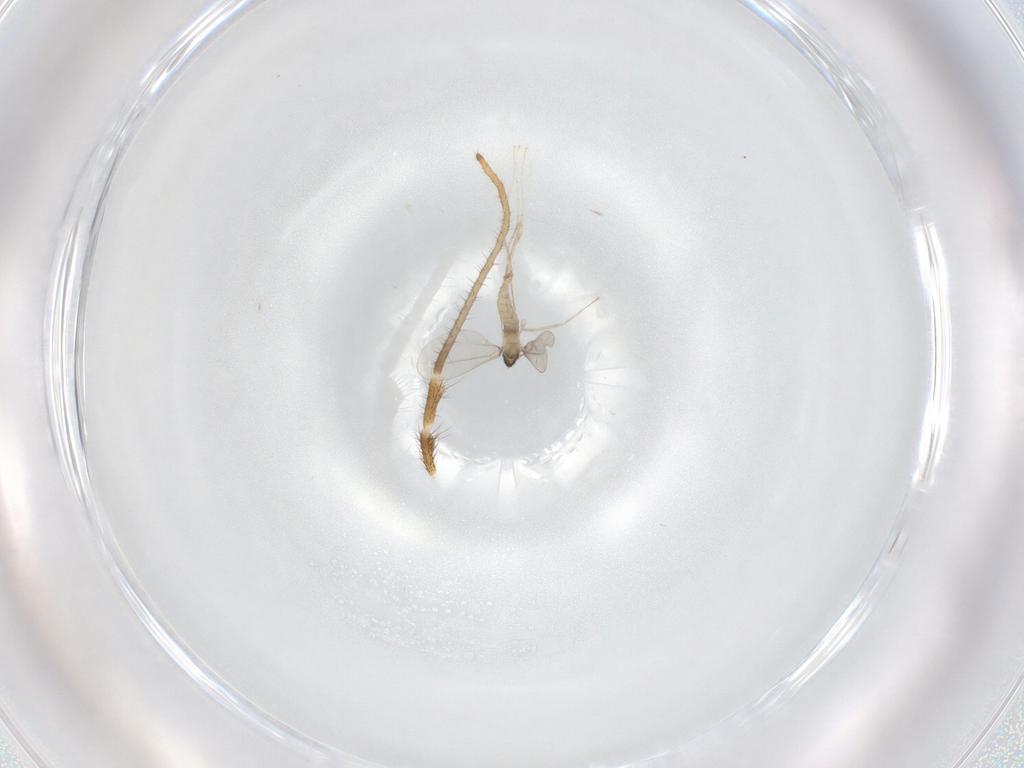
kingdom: Animalia
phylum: Arthropoda
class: Insecta
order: Diptera
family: Cecidomyiidae
